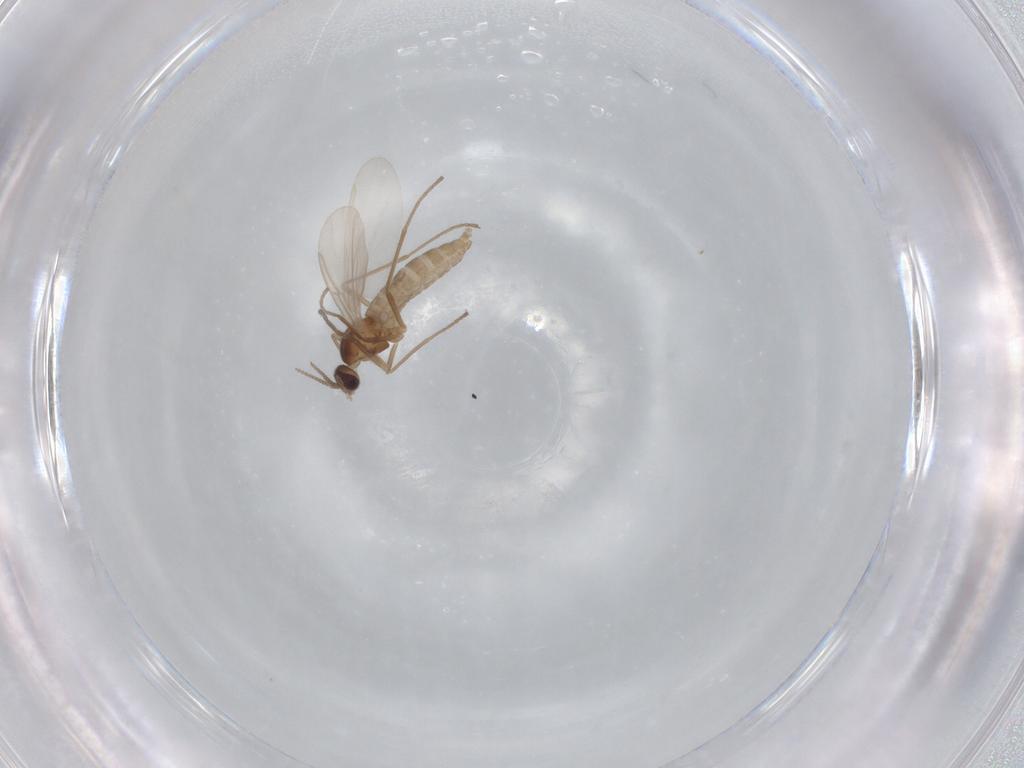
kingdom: Animalia
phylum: Arthropoda
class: Insecta
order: Diptera
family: Cecidomyiidae
